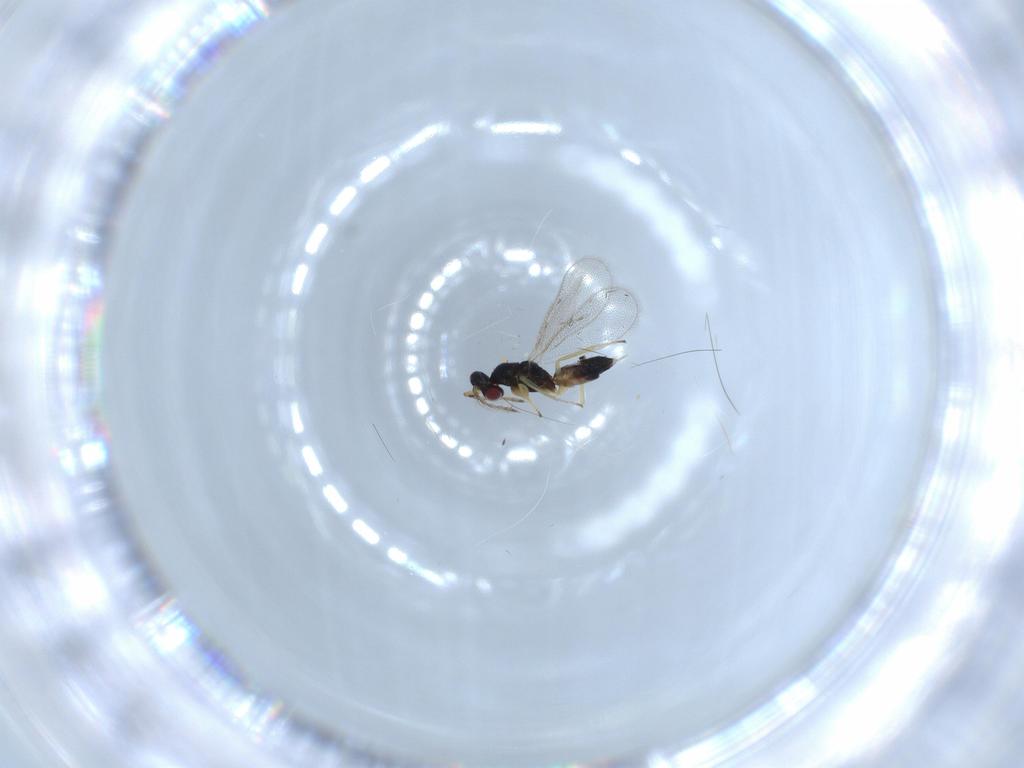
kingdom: Animalia
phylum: Arthropoda
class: Insecta
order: Hymenoptera
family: Eulophidae
